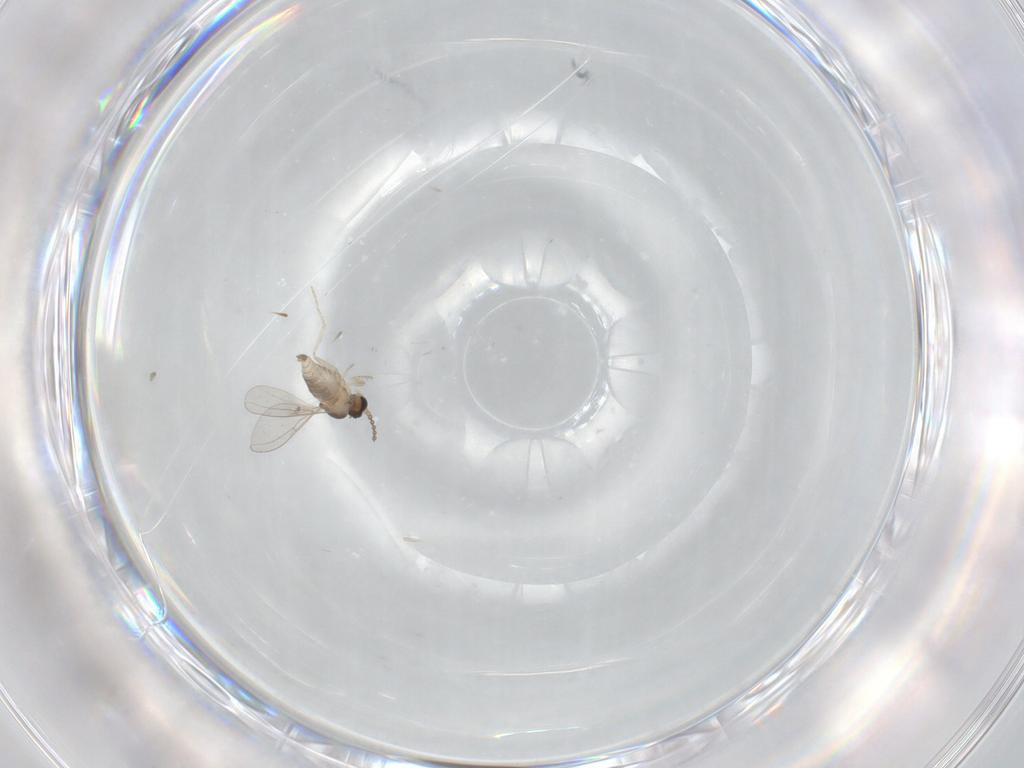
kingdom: Animalia
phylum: Arthropoda
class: Insecta
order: Diptera
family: Cecidomyiidae
